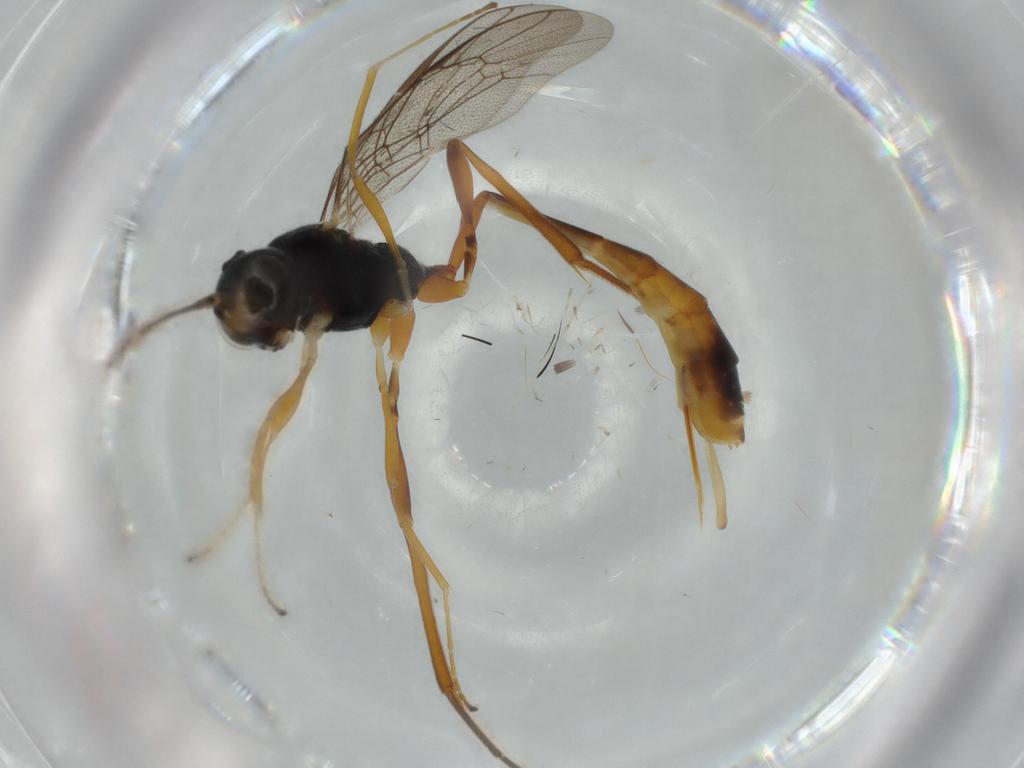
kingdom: Animalia
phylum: Arthropoda
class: Insecta
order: Hymenoptera
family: Ichneumonidae
